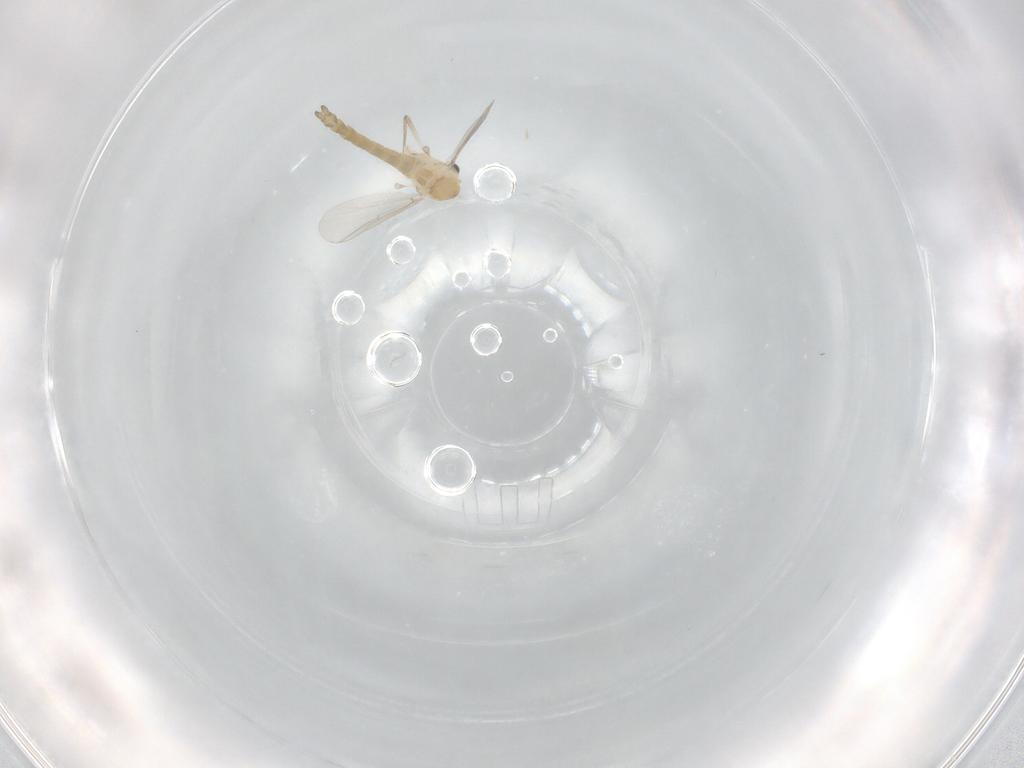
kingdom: Animalia
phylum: Arthropoda
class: Insecta
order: Diptera
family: Chironomidae
